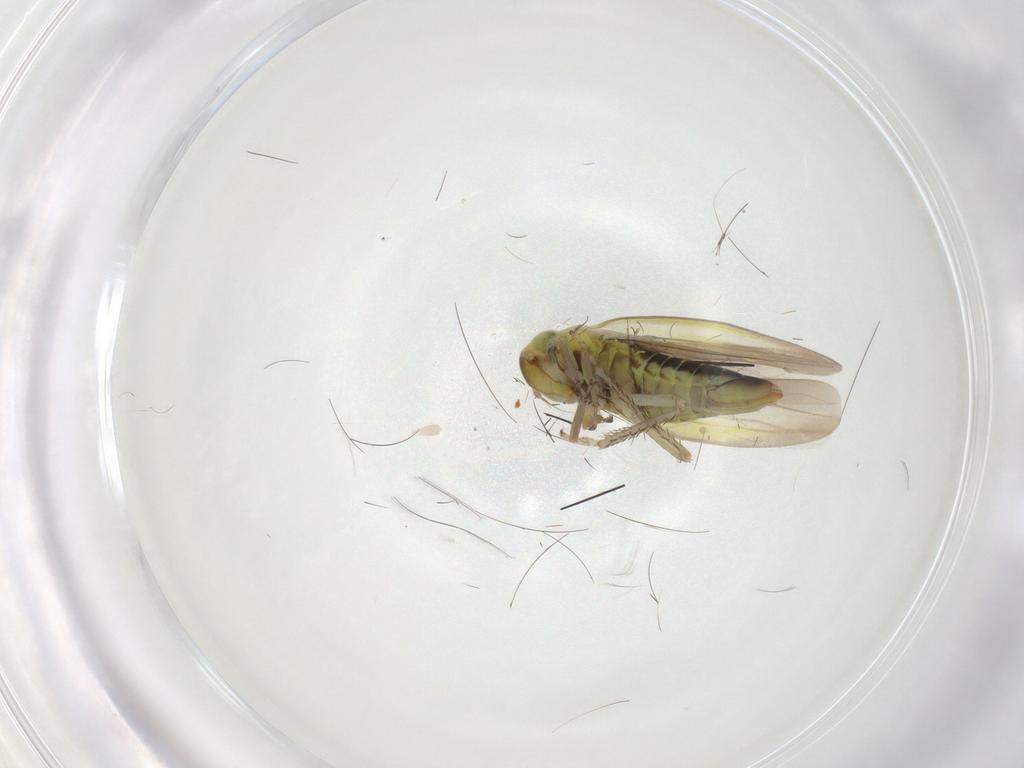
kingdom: Animalia
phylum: Arthropoda
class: Insecta
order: Hemiptera
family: Cicadellidae
